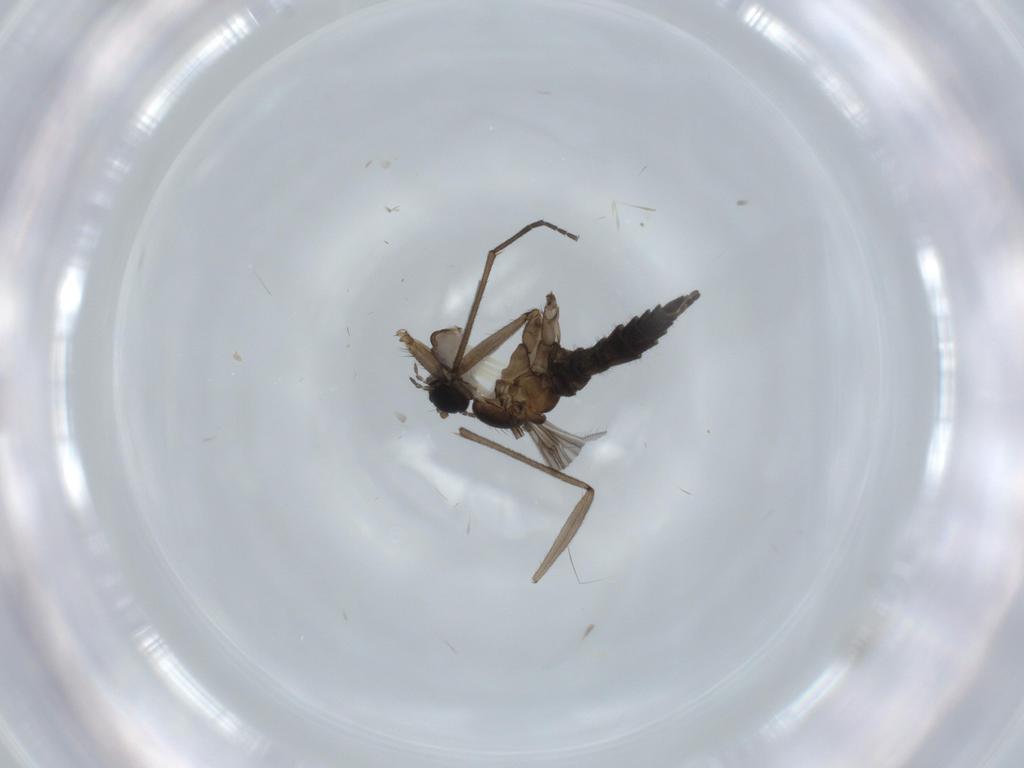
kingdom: Animalia
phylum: Arthropoda
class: Insecta
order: Diptera
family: Sciaridae
